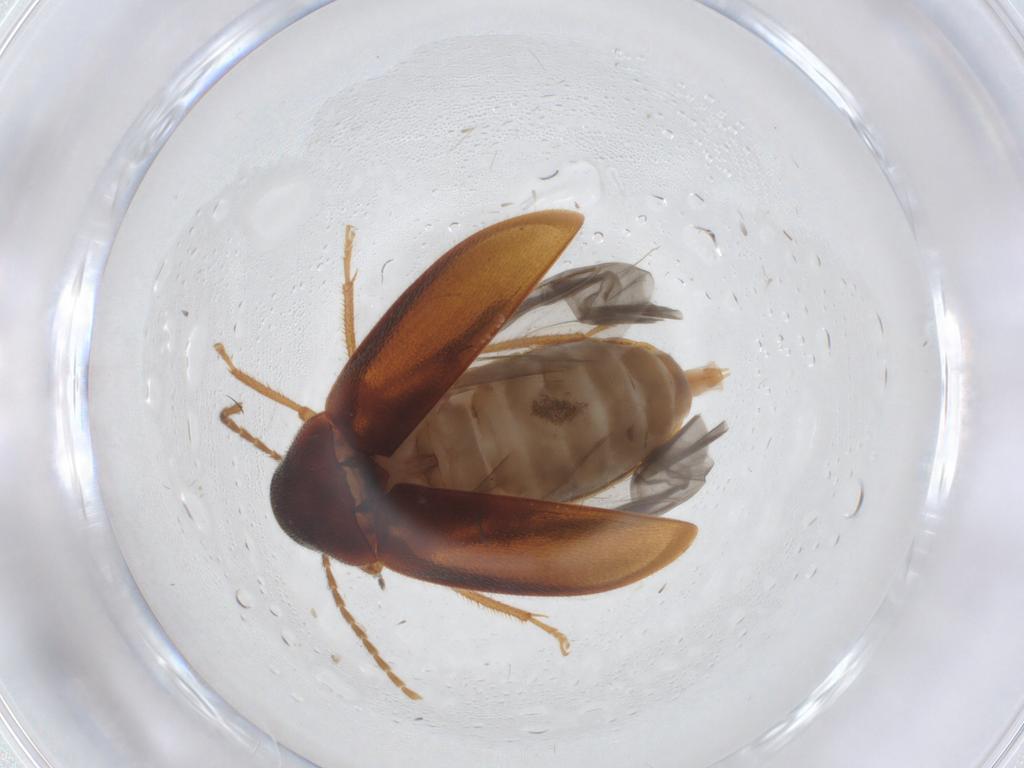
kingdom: Animalia
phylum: Arthropoda
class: Insecta
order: Coleoptera
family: Ptilodactylidae
